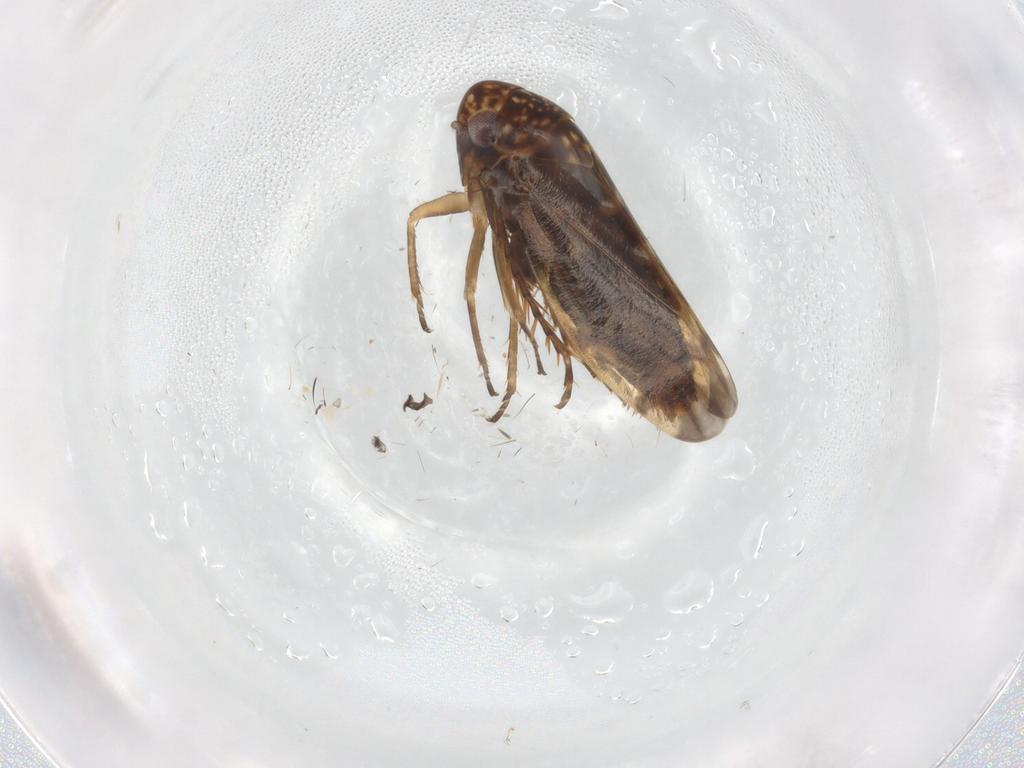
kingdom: Animalia
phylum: Arthropoda
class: Insecta
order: Hemiptera
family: Cicadellidae
